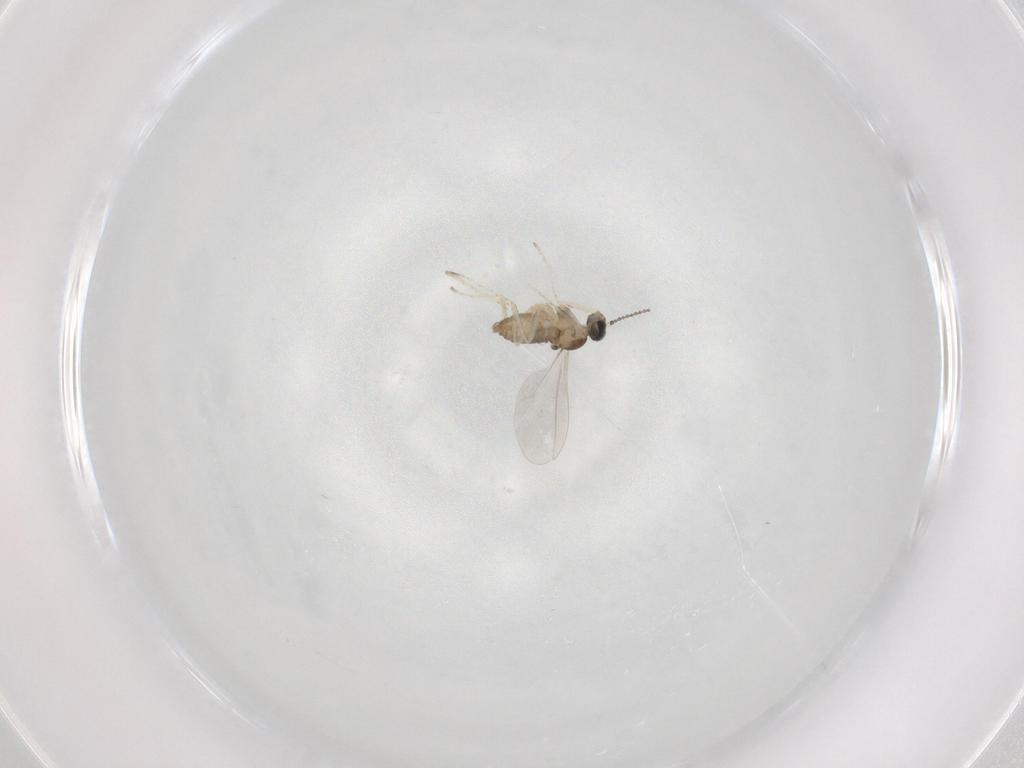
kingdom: Animalia
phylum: Arthropoda
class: Insecta
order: Diptera
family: Cecidomyiidae
